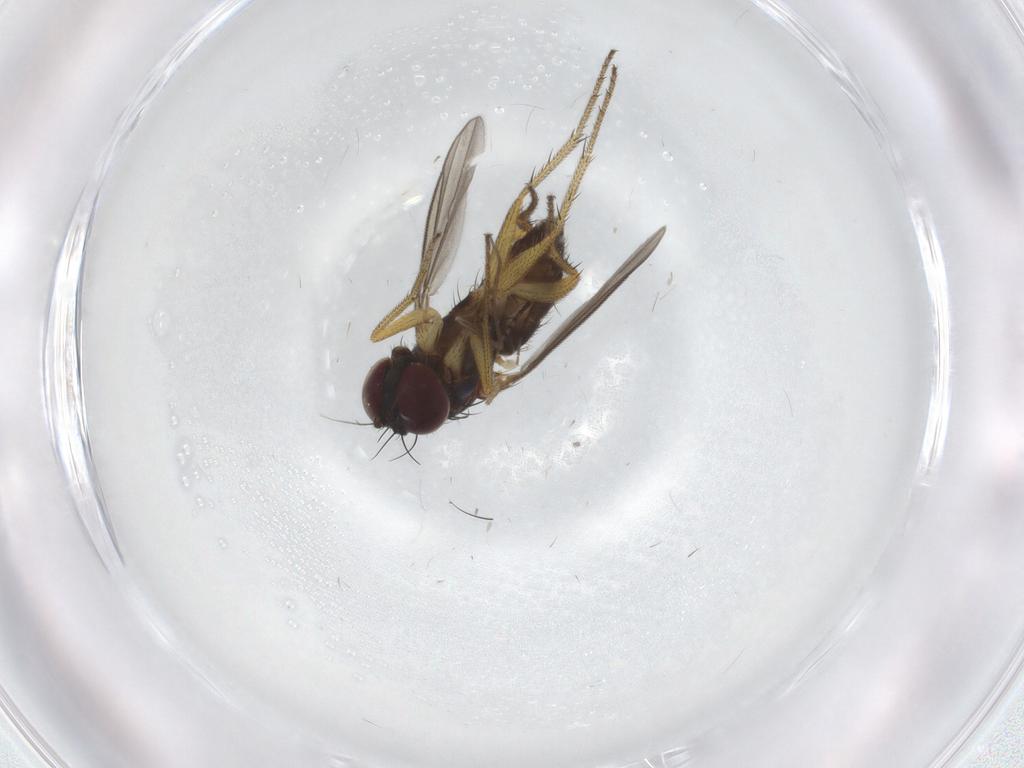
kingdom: Animalia
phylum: Arthropoda
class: Insecta
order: Diptera
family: Dolichopodidae
